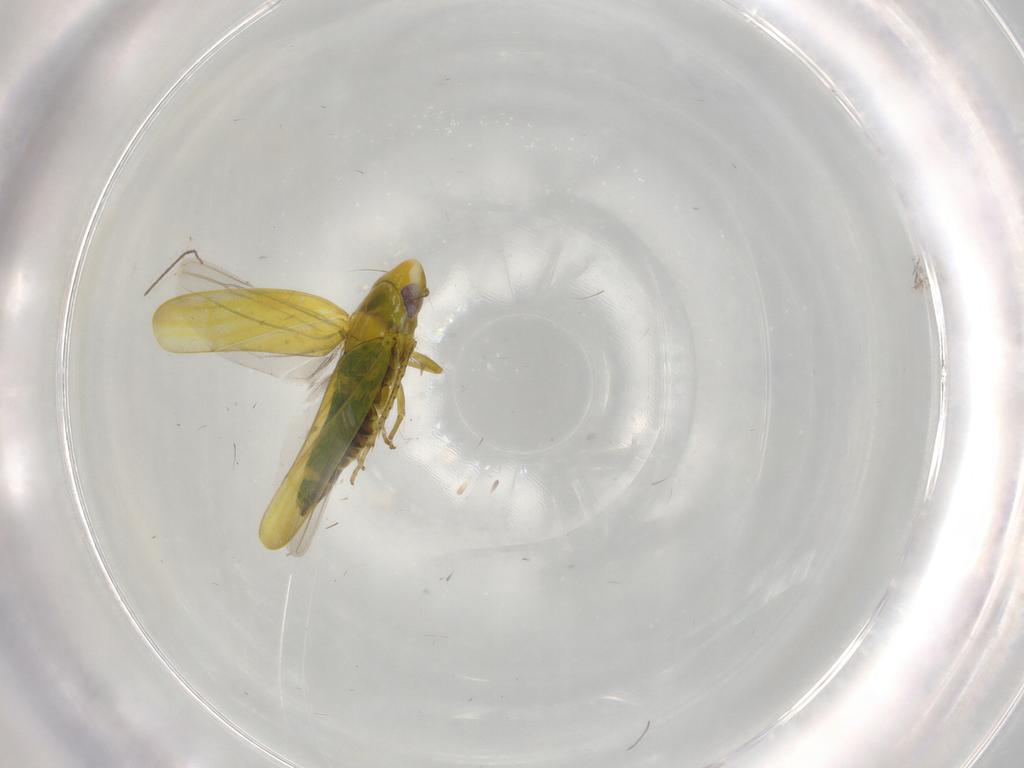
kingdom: Animalia
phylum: Arthropoda
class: Insecta
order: Hemiptera
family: Cicadellidae
